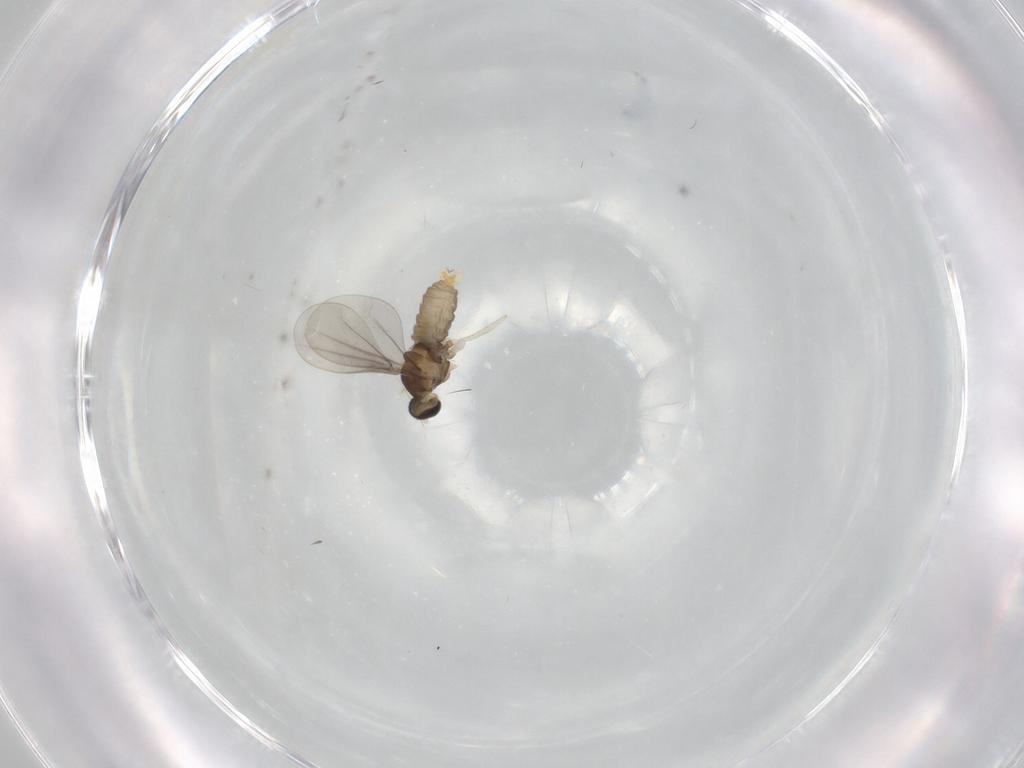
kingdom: Animalia
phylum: Arthropoda
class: Insecta
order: Diptera
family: Cecidomyiidae
